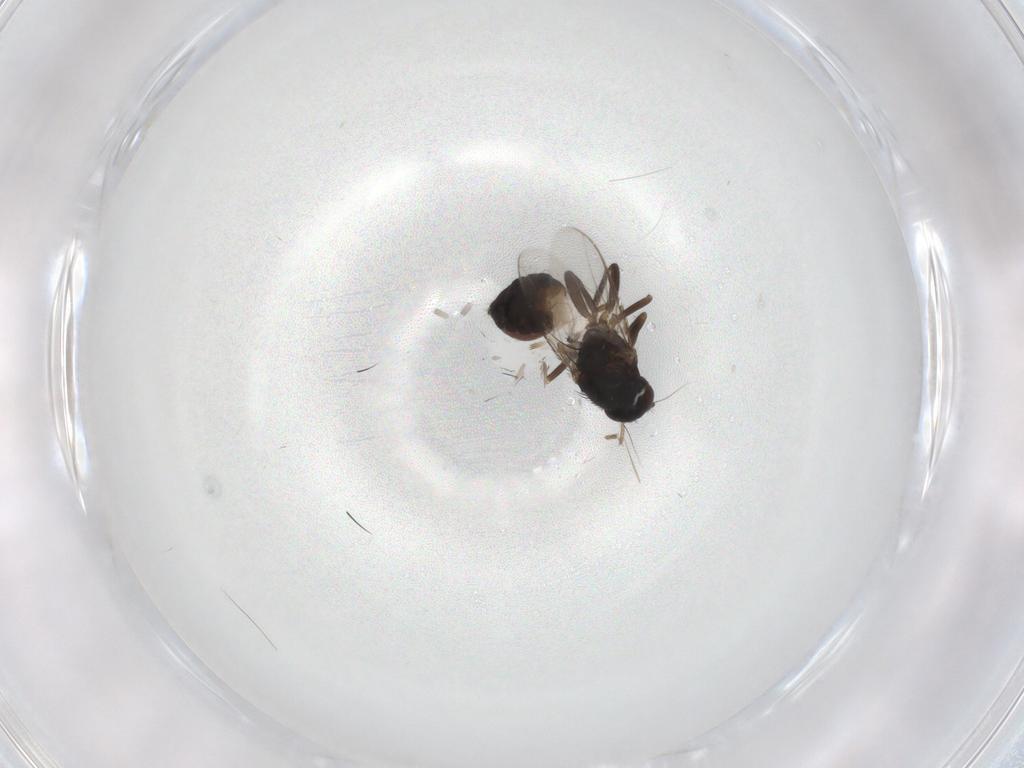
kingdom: Animalia
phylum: Arthropoda
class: Insecta
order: Diptera
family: Sphaeroceridae
